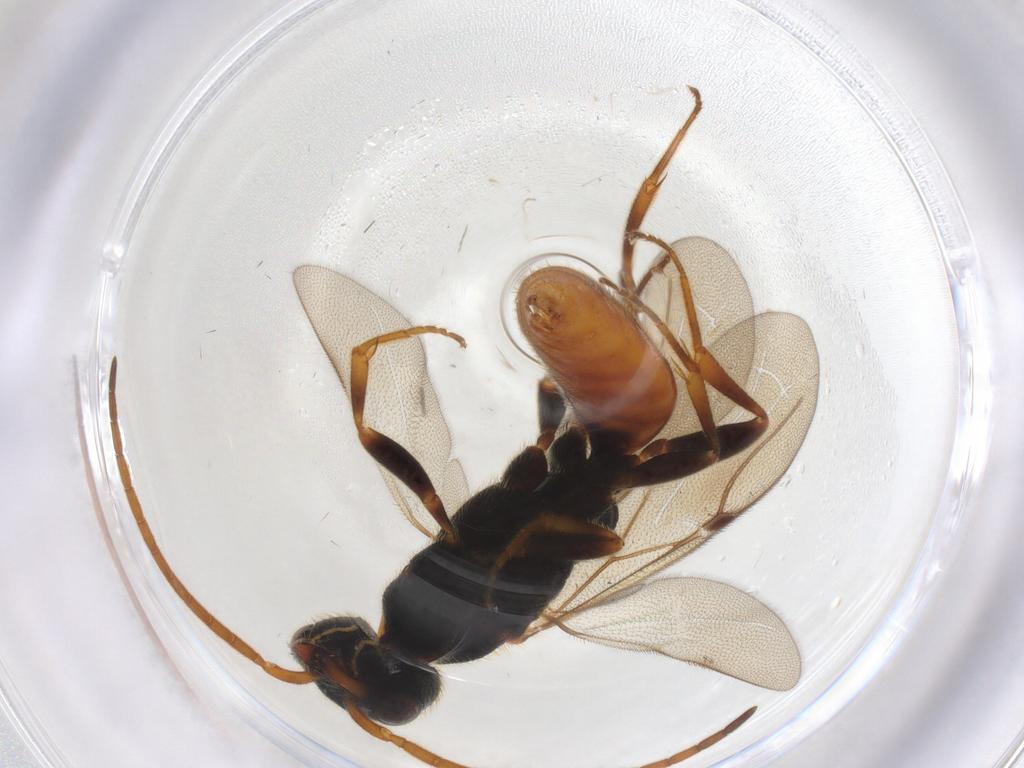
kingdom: Animalia
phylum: Arthropoda
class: Insecta
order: Hymenoptera
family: Bethylidae
